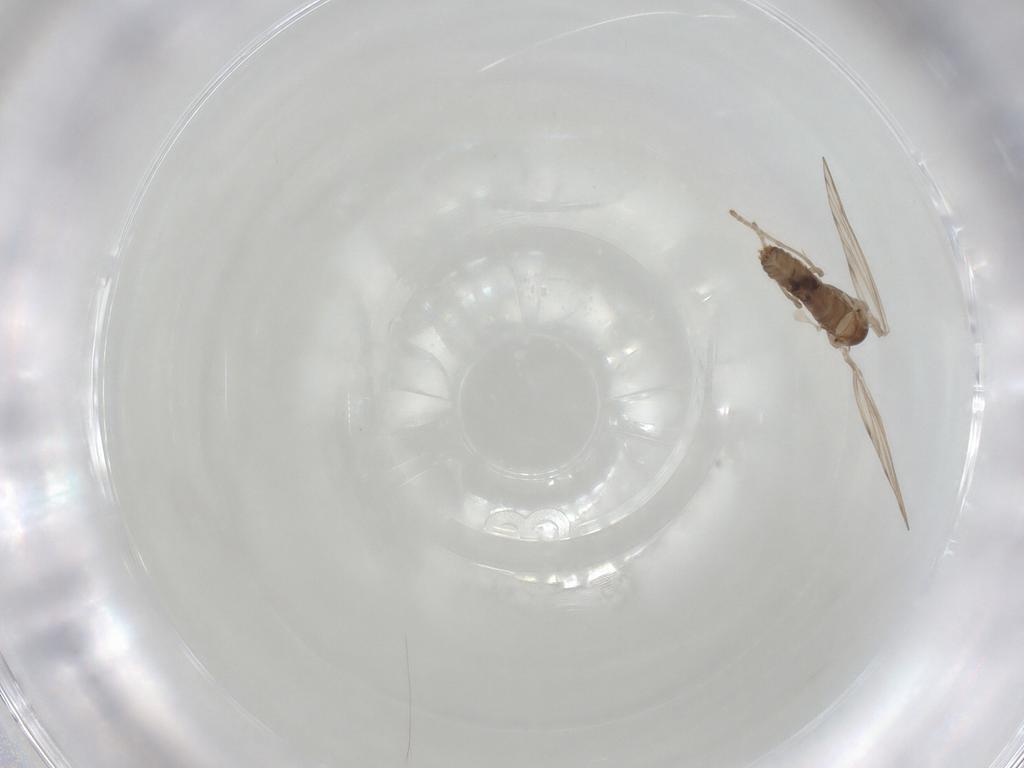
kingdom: Animalia
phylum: Arthropoda
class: Insecta
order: Diptera
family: Psychodidae
